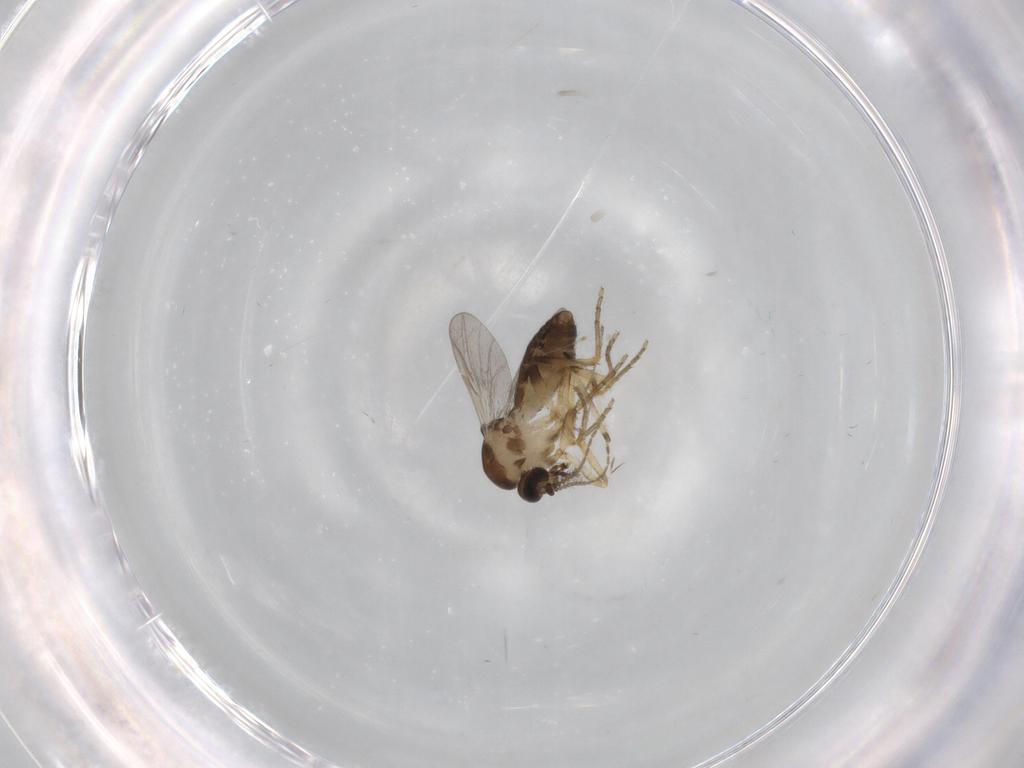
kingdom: Animalia
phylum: Arthropoda
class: Insecta
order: Diptera
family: Ceratopogonidae
